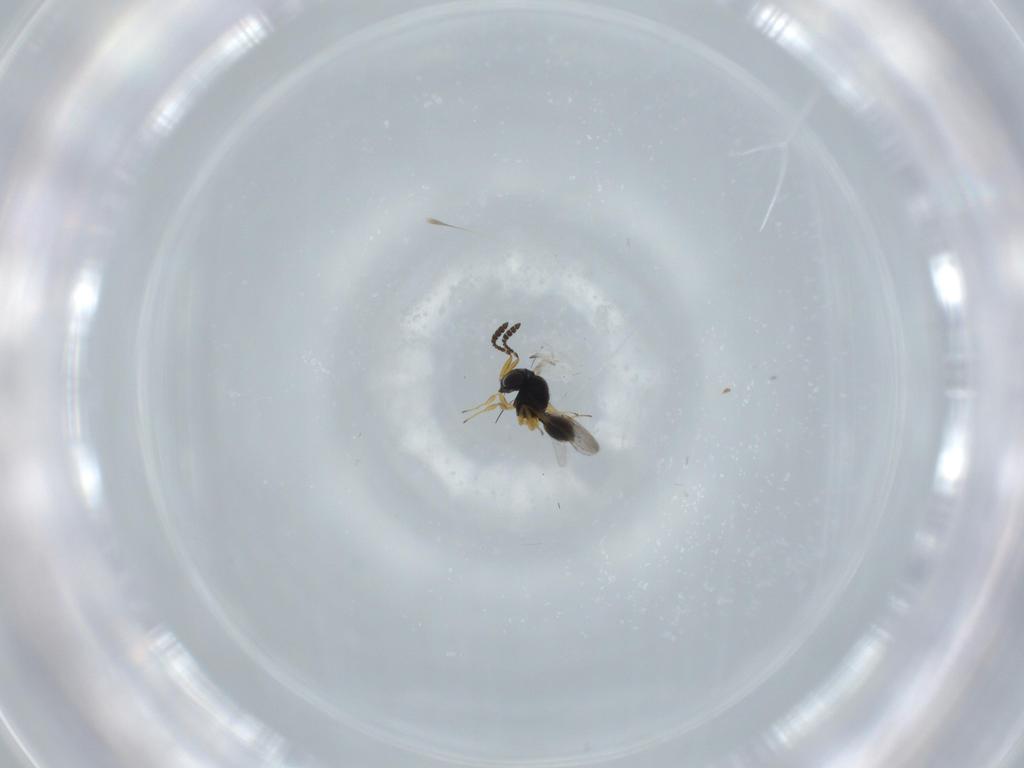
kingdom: Animalia
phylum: Arthropoda
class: Insecta
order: Hymenoptera
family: Scelionidae
